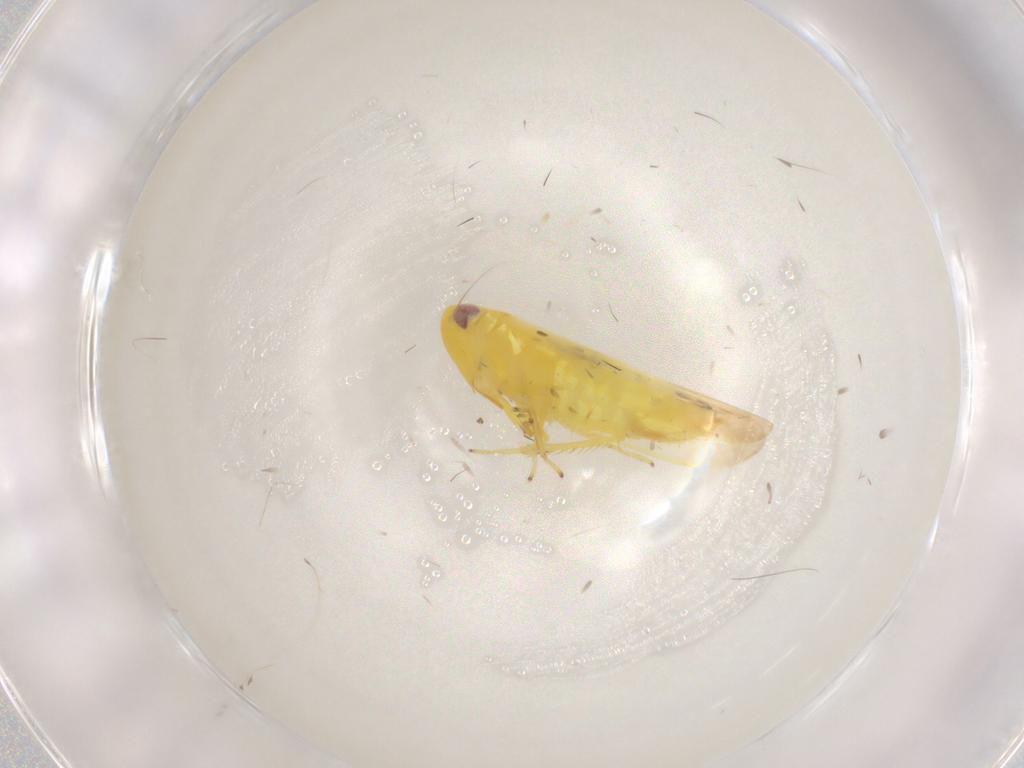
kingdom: Animalia
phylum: Arthropoda
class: Insecta
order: Hemiptera
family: Cicadellidae
